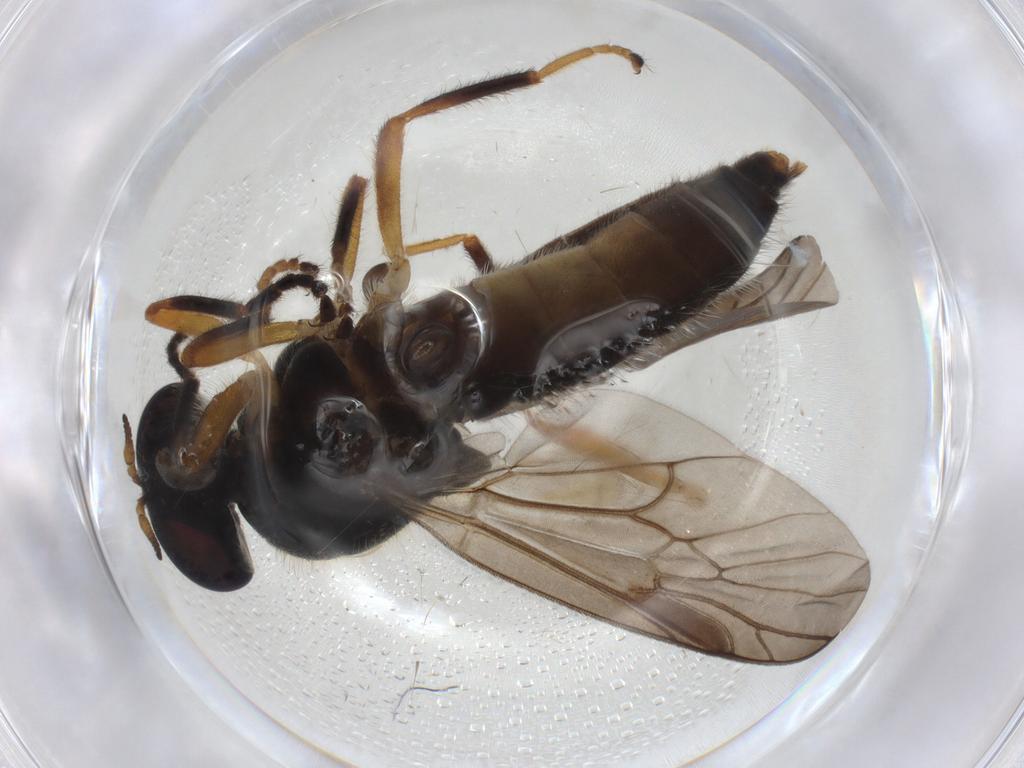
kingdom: Animalia
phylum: Arthropoda
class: Insecta
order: Diptera
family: Stratiomyidae
